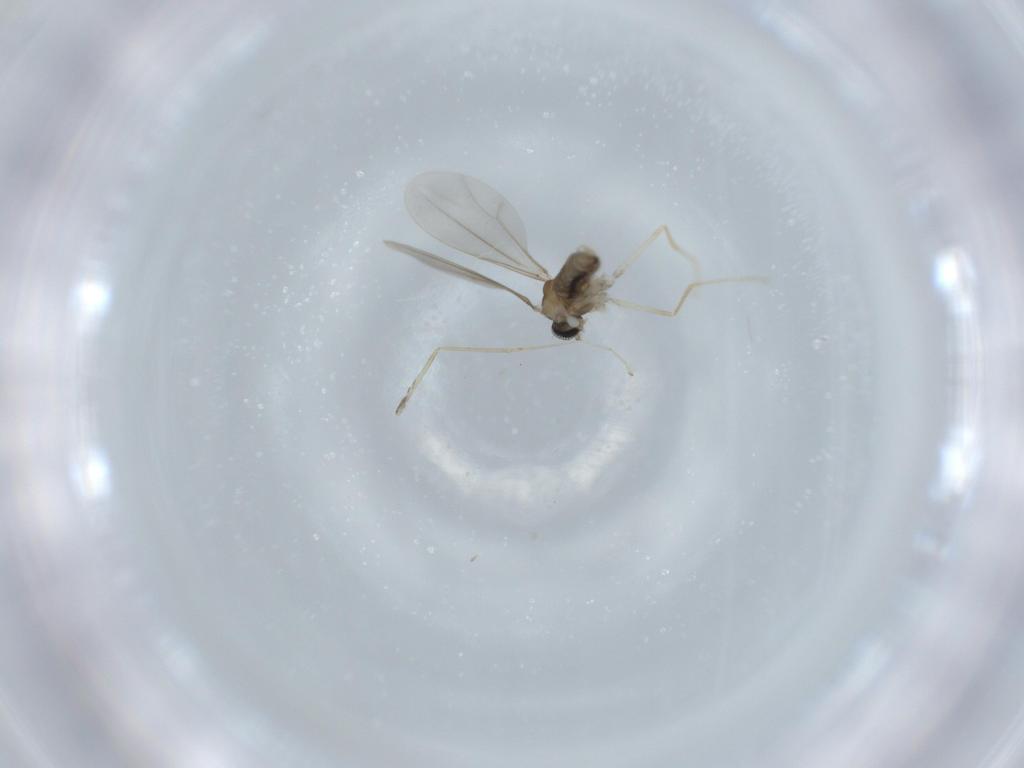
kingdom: Animalia
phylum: Arthropoda
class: Insecta
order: Diptera
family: Cecidomyiidae
